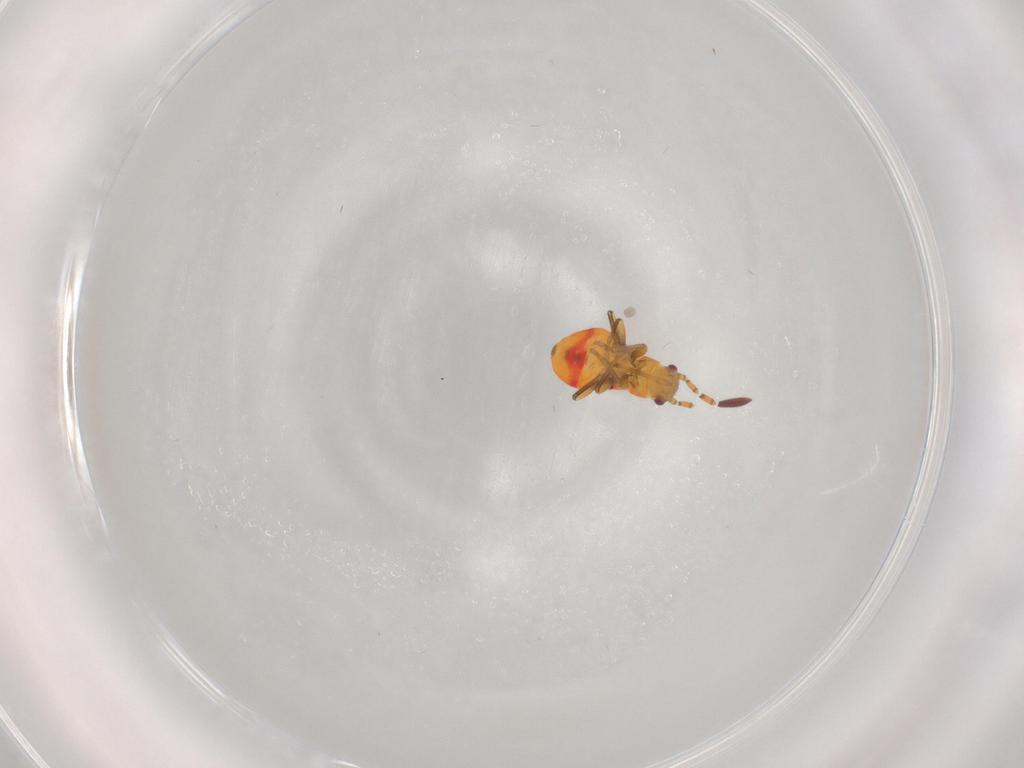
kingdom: Animalia
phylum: Arthropoda
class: Insecta
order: Hemiptera
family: Rhyparochromidae
